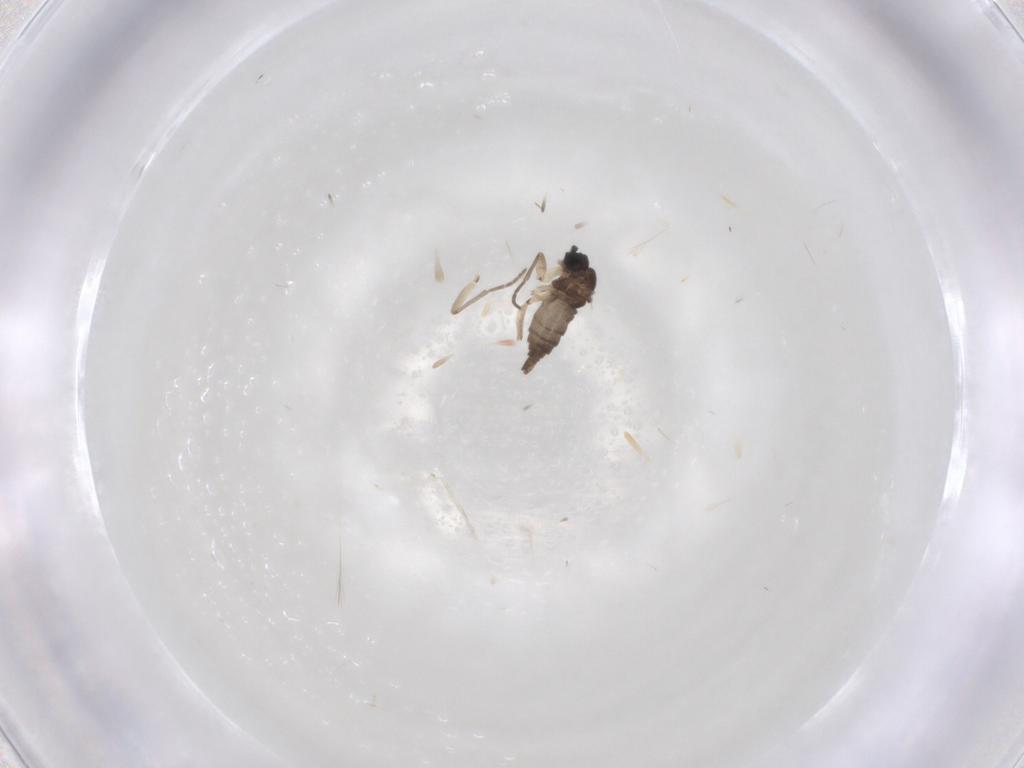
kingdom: Animalia
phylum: Arthropoda
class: Insecta
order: Diptera
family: Sciaridae
